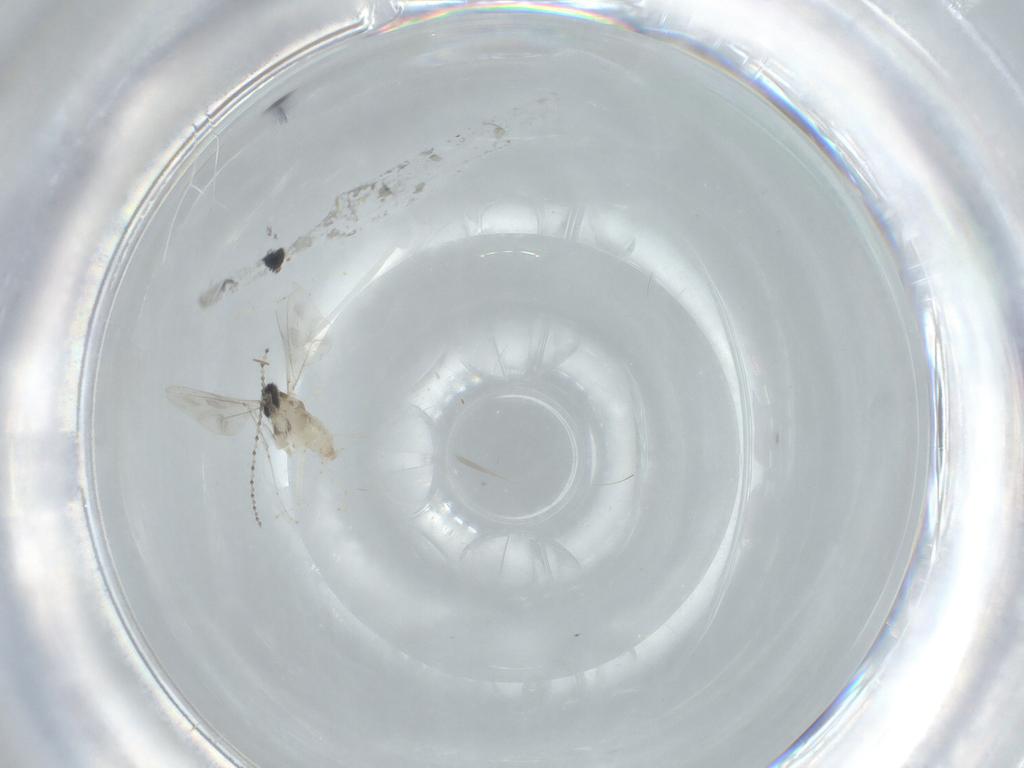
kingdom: Animalia
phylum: Arthropoda
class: Insecta
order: Diptera
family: Cecidomyiidae
